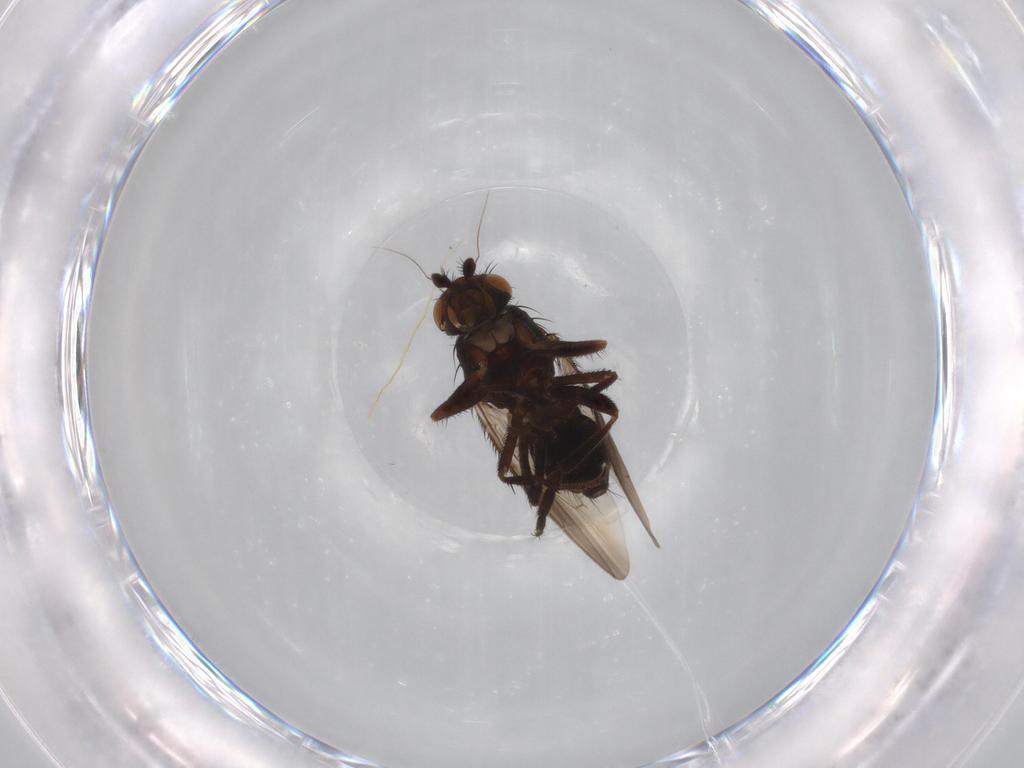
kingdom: Animalia
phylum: Arthropoda
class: Insecta
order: Diptera
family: Sphaeroceridae
